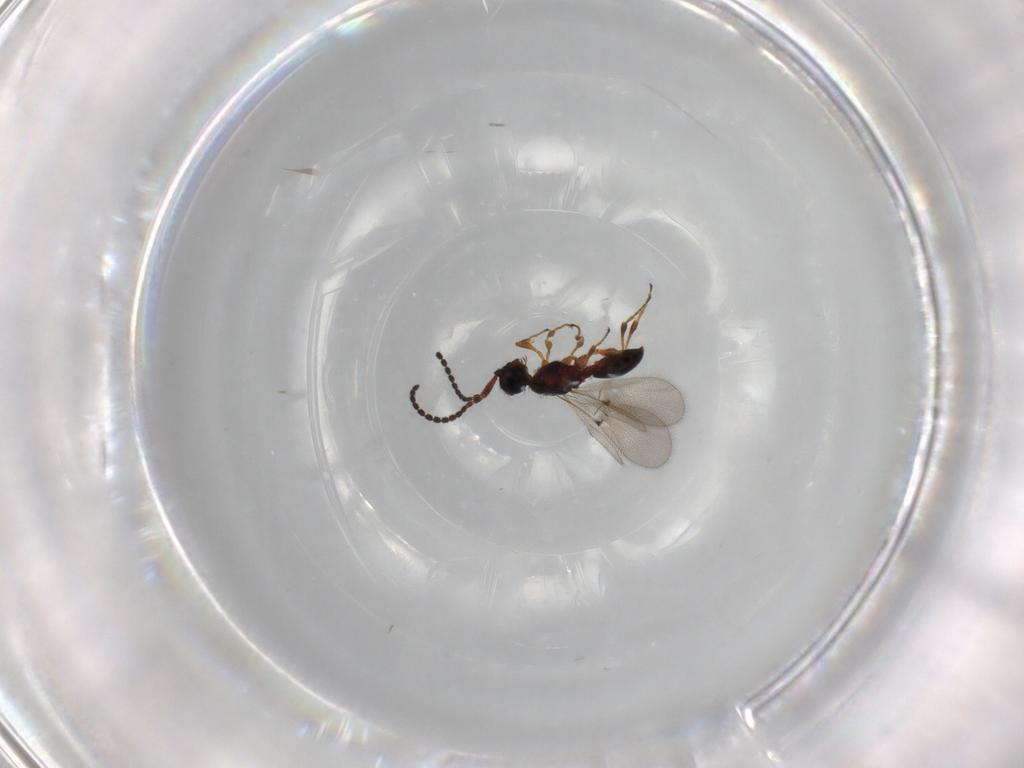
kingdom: Animalia
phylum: Arthropoda
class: Insecta
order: Hymenoptera
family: Diapriidae
